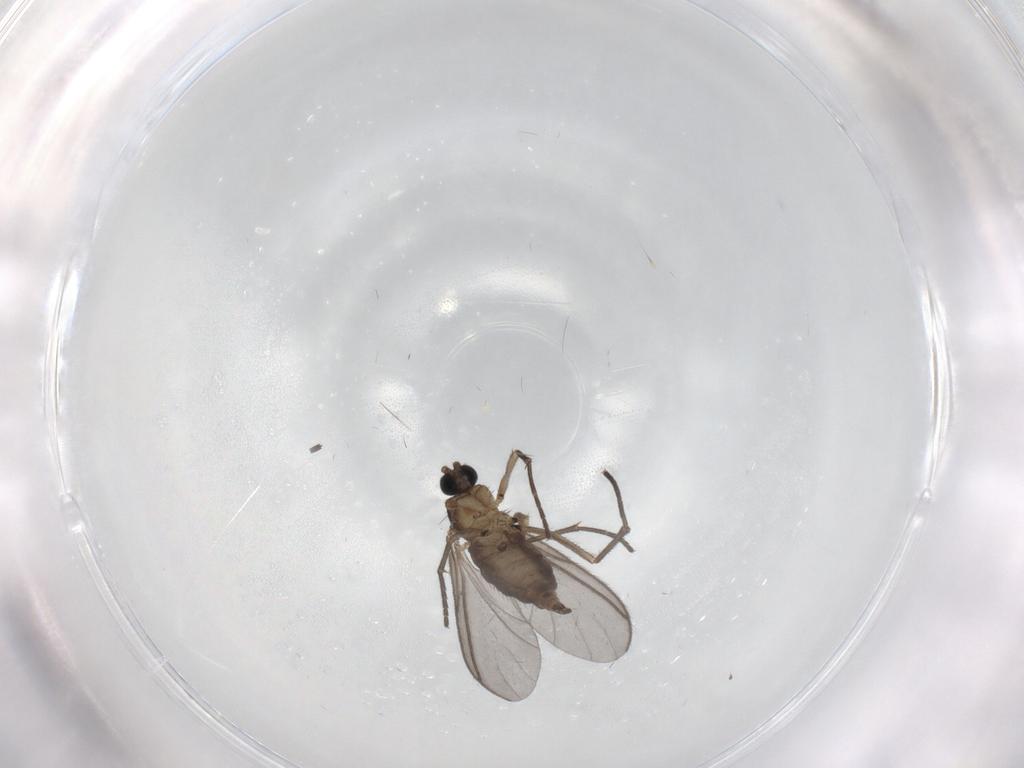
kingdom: Animalia
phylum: Arthropoda
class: Insecta
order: Diptera
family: Sciaridae
